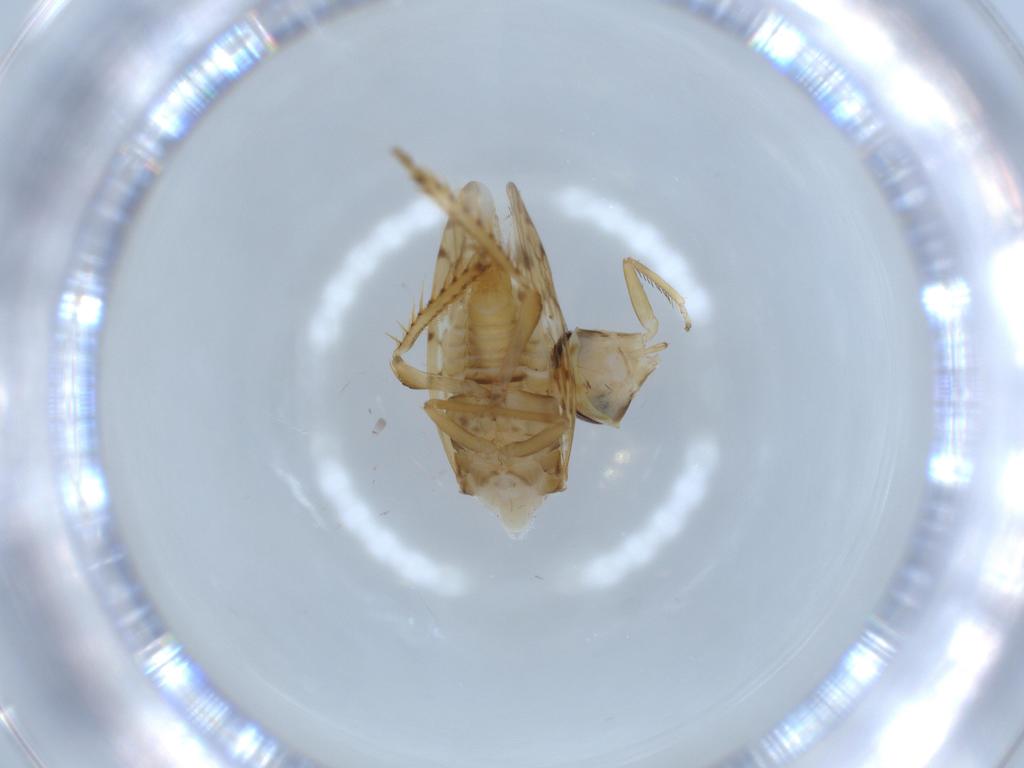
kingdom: Animalia
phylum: Arthropoda
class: Insecta
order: Hemiptera
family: Cicadellidae
